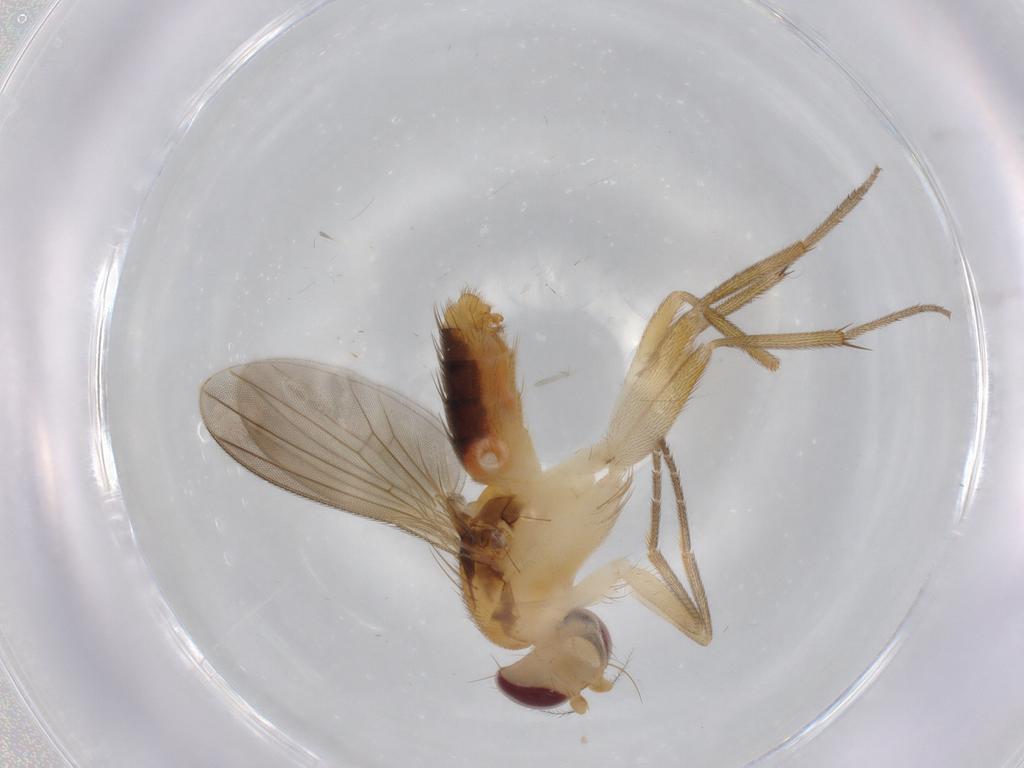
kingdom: Animalia
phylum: Arthropoda
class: Insecta
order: Diptera
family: Agromyzidae
